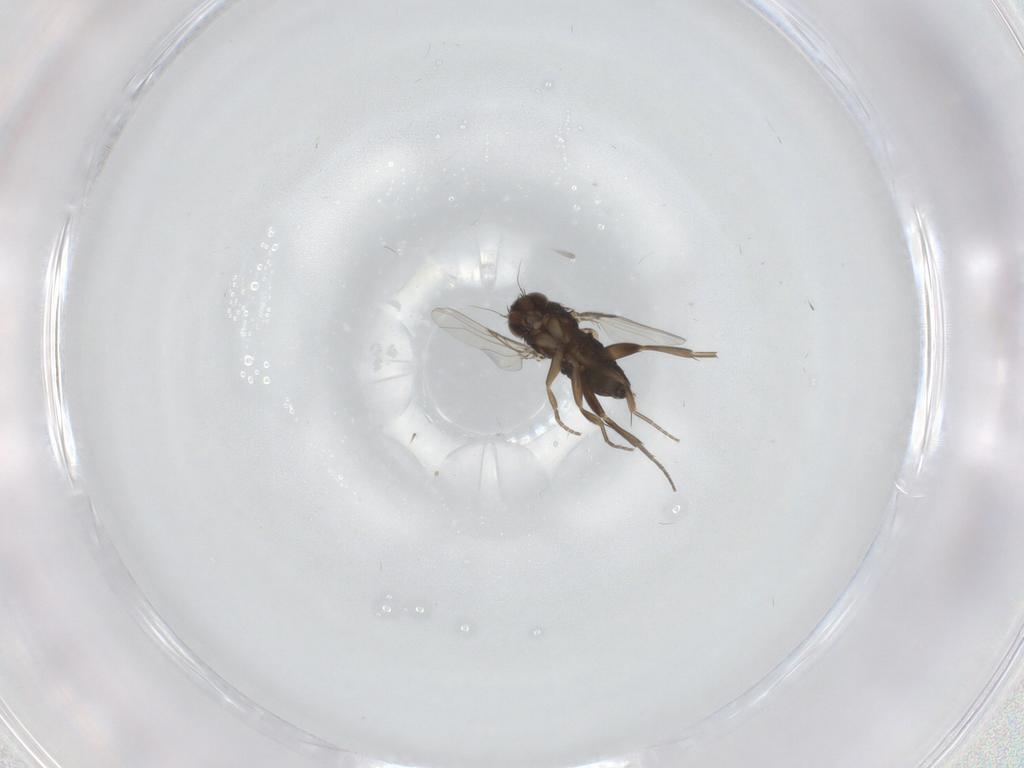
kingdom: Animalia
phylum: Arthropoda
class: Insecta
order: Diptera
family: Phoridae
